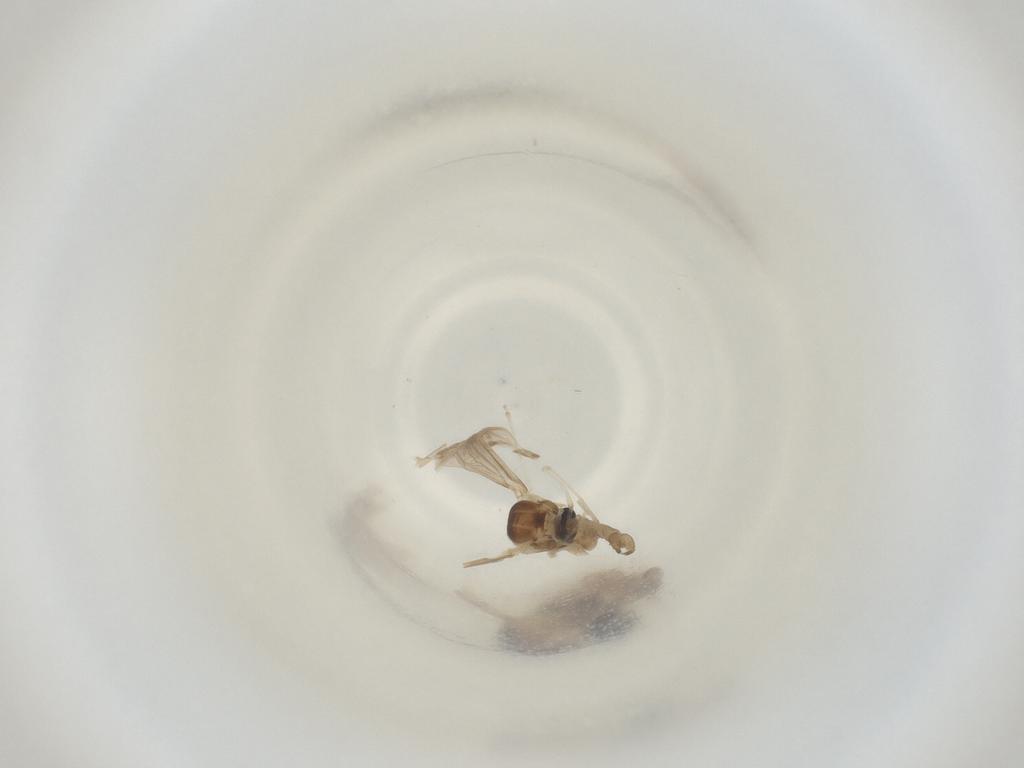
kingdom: Animalia
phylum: Arthropoda
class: Insecta
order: Diptera
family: Cecidomyiidae
